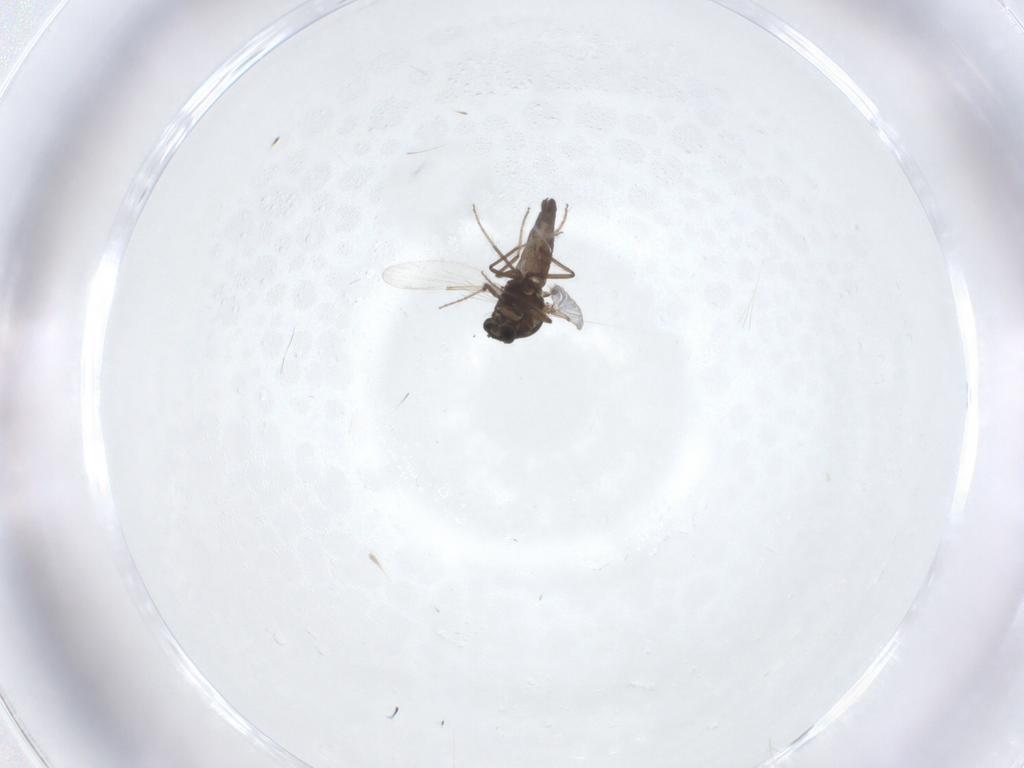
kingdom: Animalia
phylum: Arthropoda
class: Insecta
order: Diptera
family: Ceratopogonidae
